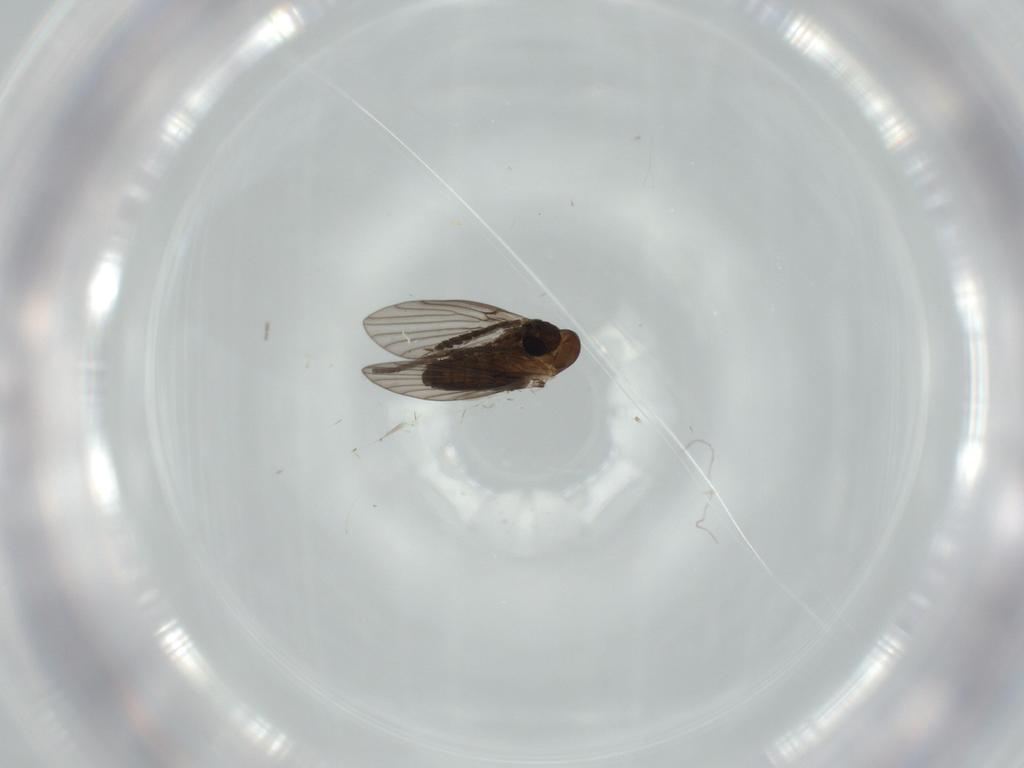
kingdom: Animalia
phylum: Arthropoda
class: Insecta
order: Diptera
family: Psychodidae
